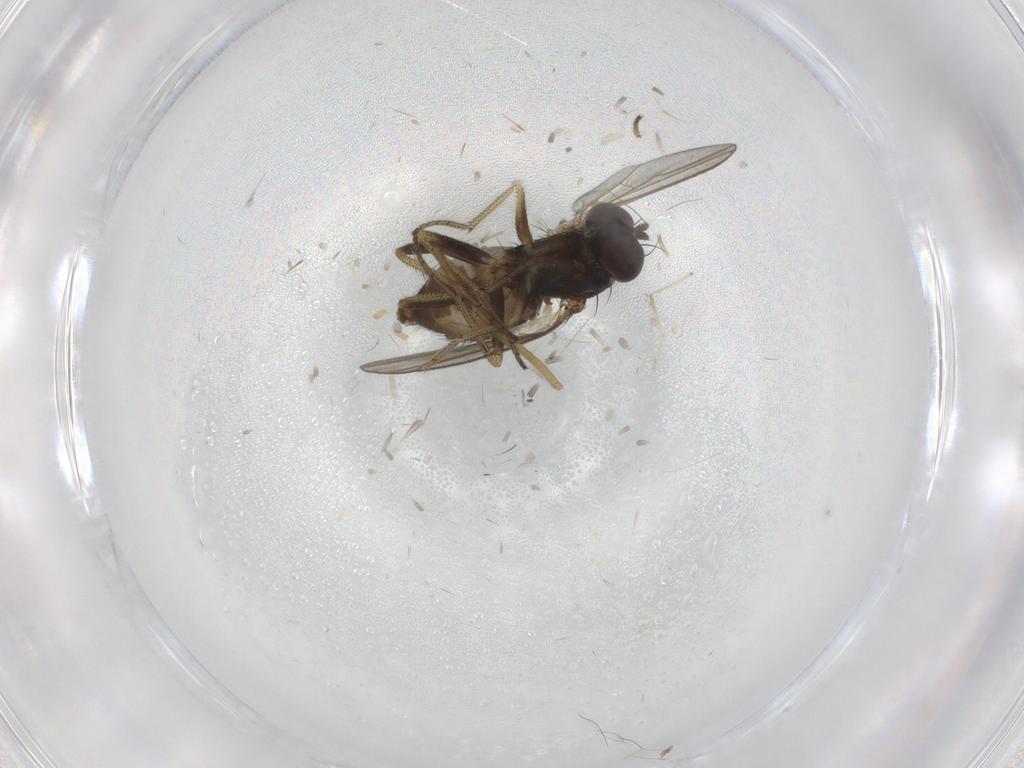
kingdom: Animalia
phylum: Arthropoda
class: Insecta
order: Diptera
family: Dolichopodidae
